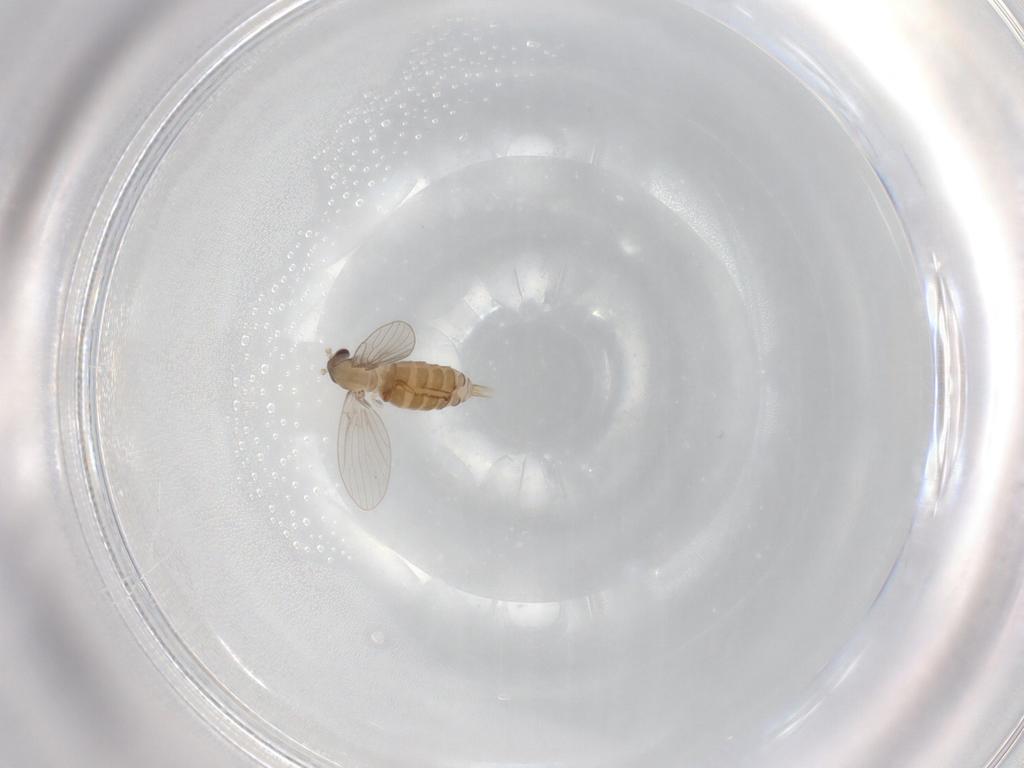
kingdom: Animalia
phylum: Arthropoda
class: Insecta
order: Diptera
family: Psychodidae
